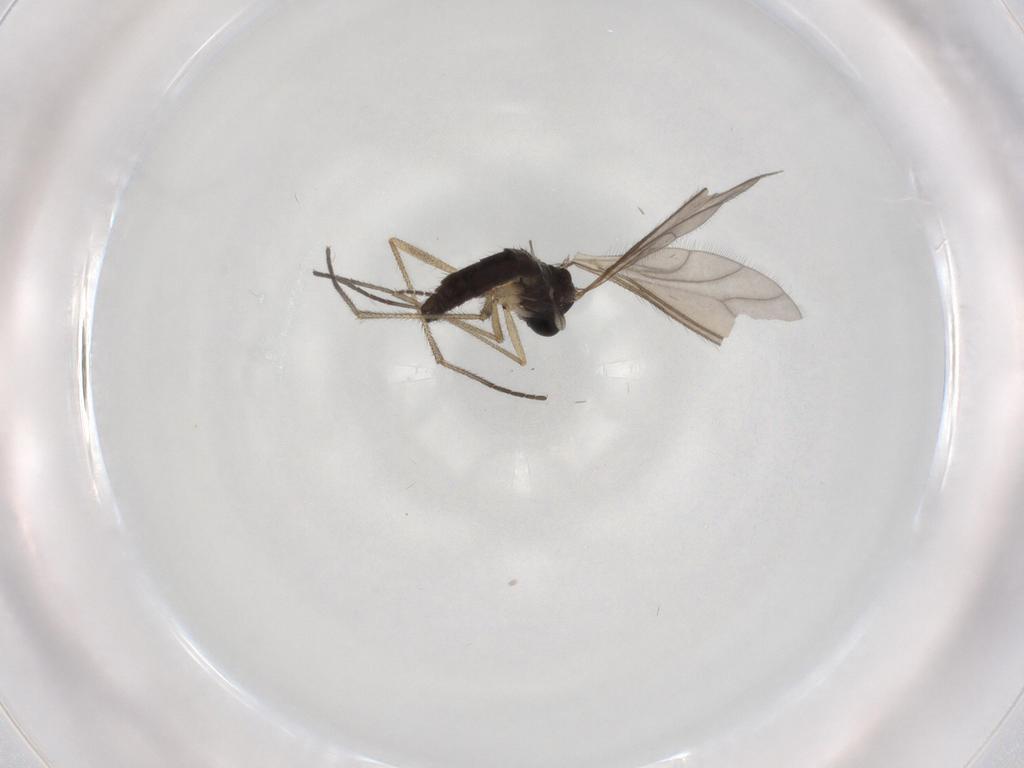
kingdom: Animalia
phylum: Arthropoda
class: Insecta
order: Diptera
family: Sciaridae
